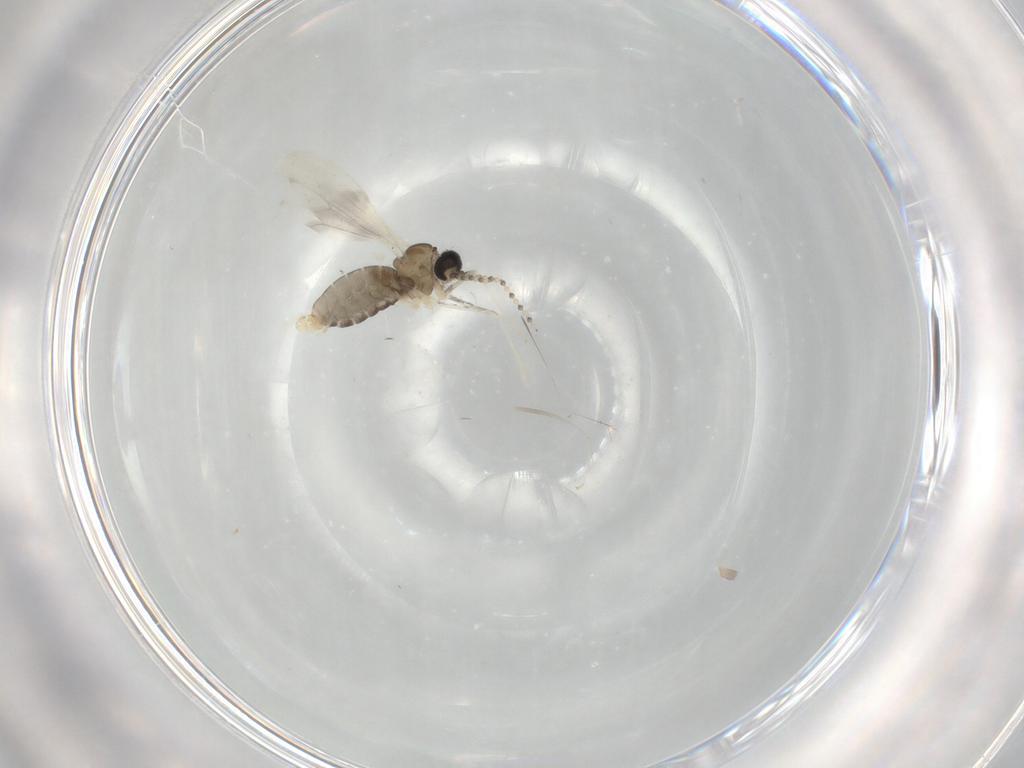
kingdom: Animalia
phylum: Arthropoda
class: Insecta
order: Diptera
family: Cecidomyiidae
